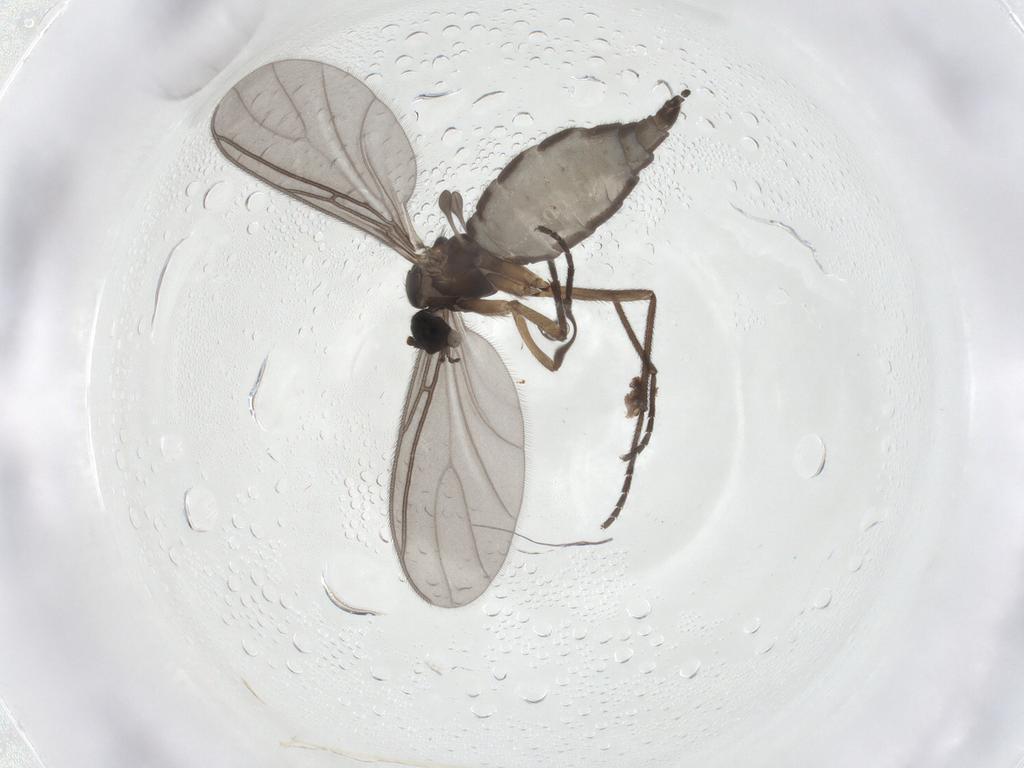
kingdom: Animalia
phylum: Arthropoda
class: Insecta
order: Diptera
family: Sciaridae
